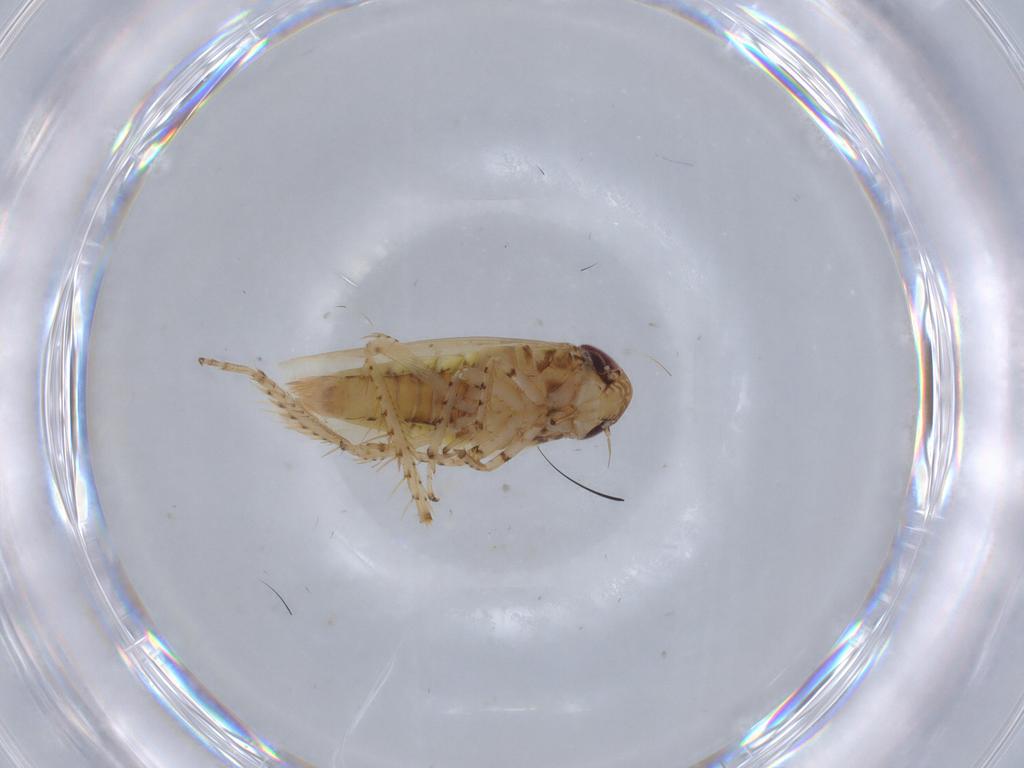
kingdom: Animalia
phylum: Arthropoda
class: Insecta
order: Hemiptera
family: Cicadellidae
